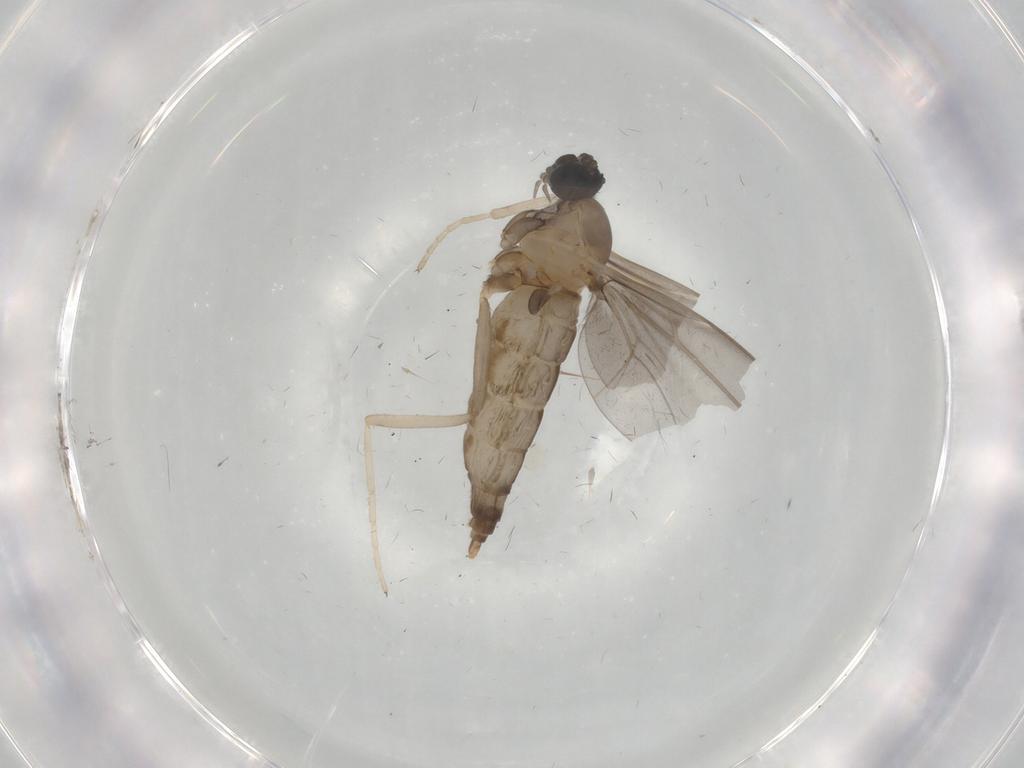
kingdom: Animalia
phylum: Arthropoda
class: Insecta
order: Diptera
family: Cecidomyiidae
